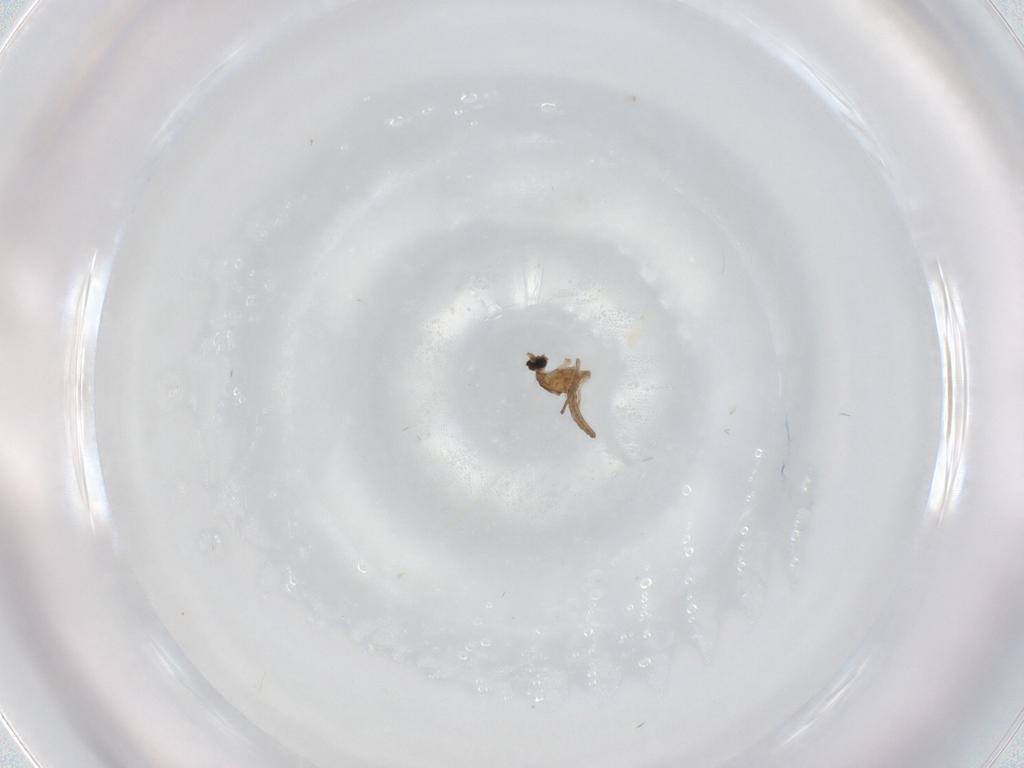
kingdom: Animalia
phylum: Arthropoda
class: Insecta
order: Diptera
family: Cecidomyiidae
